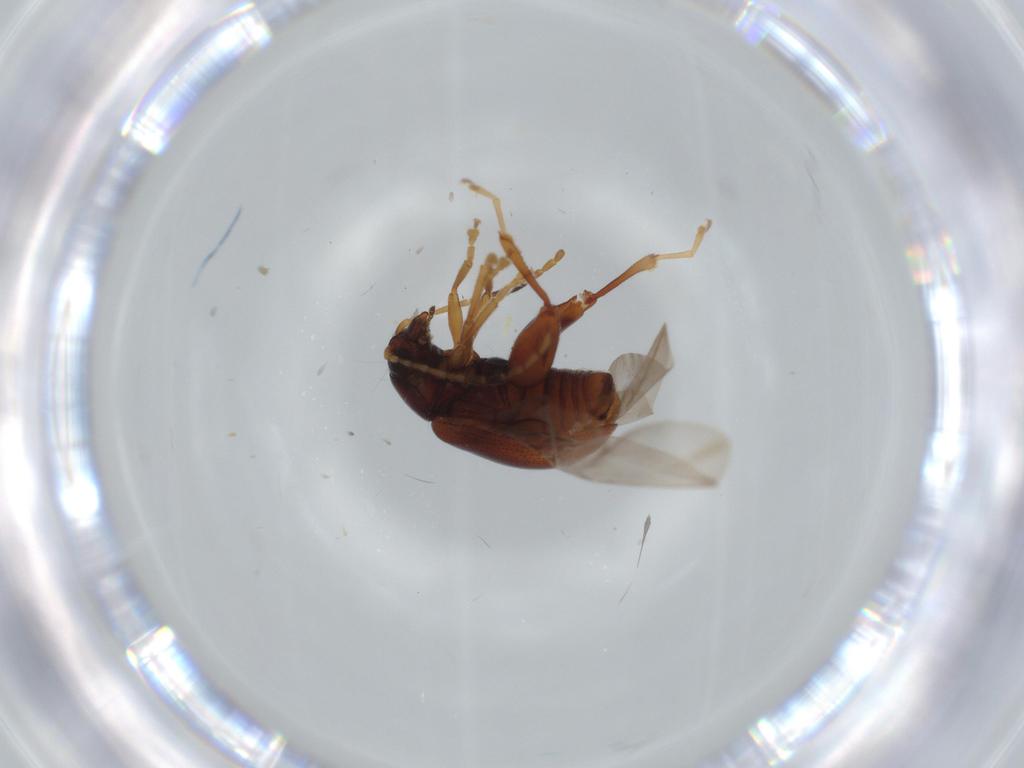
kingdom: Animalia
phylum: Arthropoda
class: Insecta
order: Coleoptera
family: Chrysomelidae
